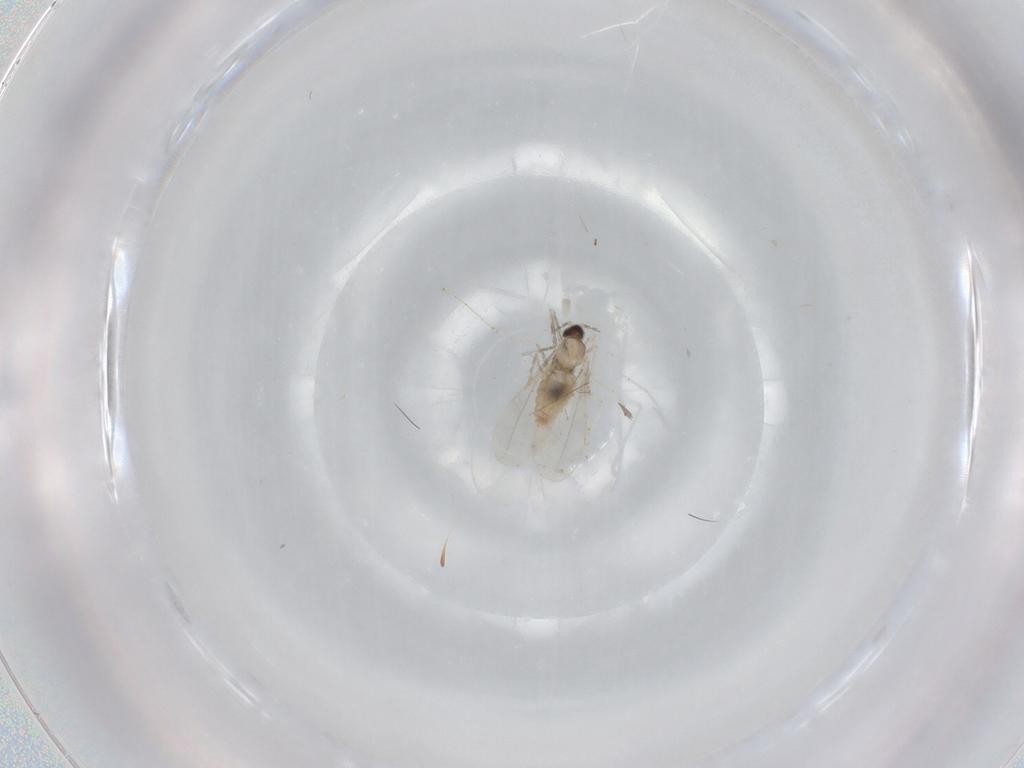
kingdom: Animalia
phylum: Arthropoda
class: Insecta
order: Diptera
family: Cecidomyiidae
